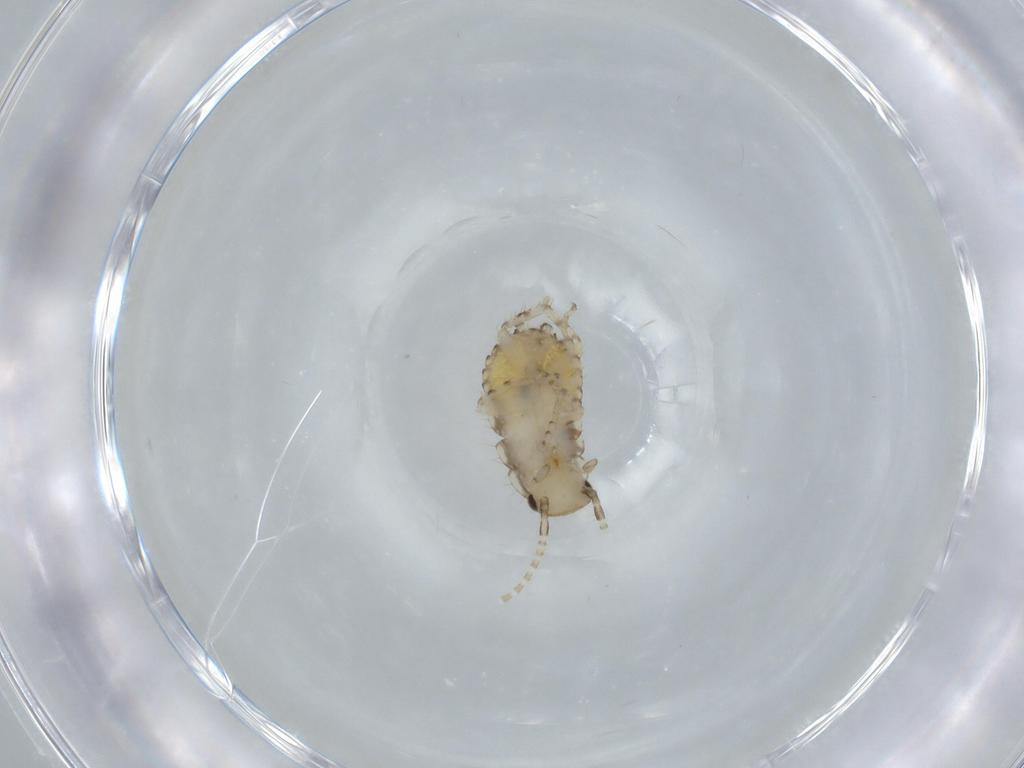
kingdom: Animalia
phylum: Arthropoda
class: Insecta
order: Blattodea
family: Ectobiidae
